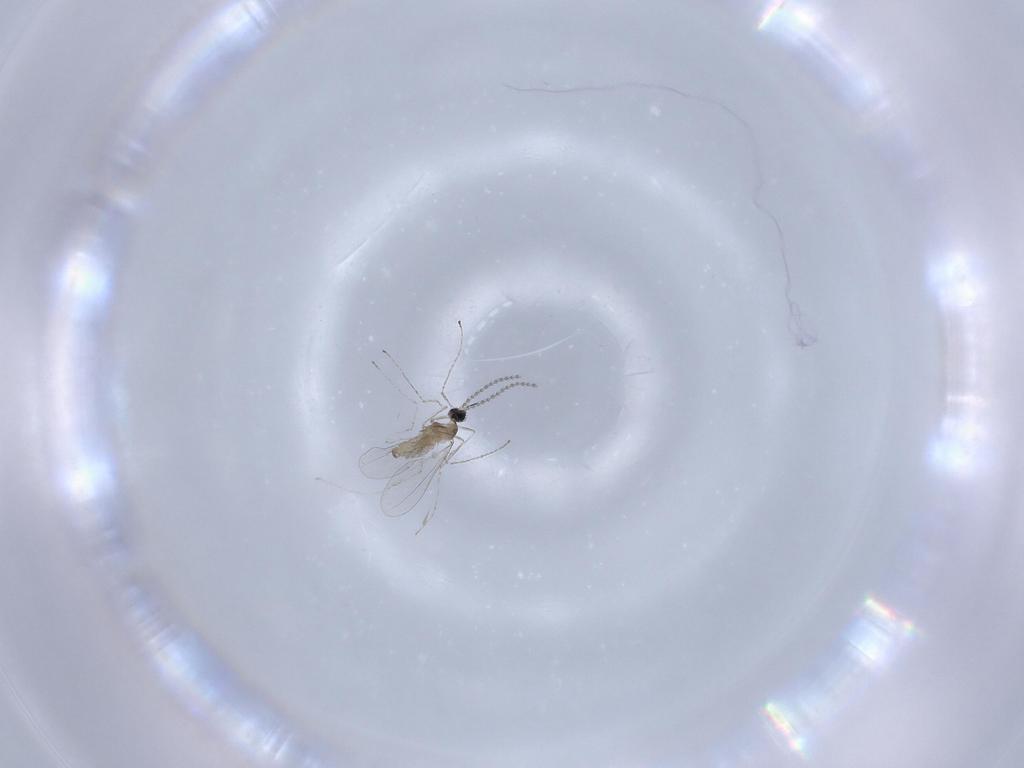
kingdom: Animalia
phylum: Arthropoda
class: Insecta
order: Diptera
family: Cecidomyiidae
